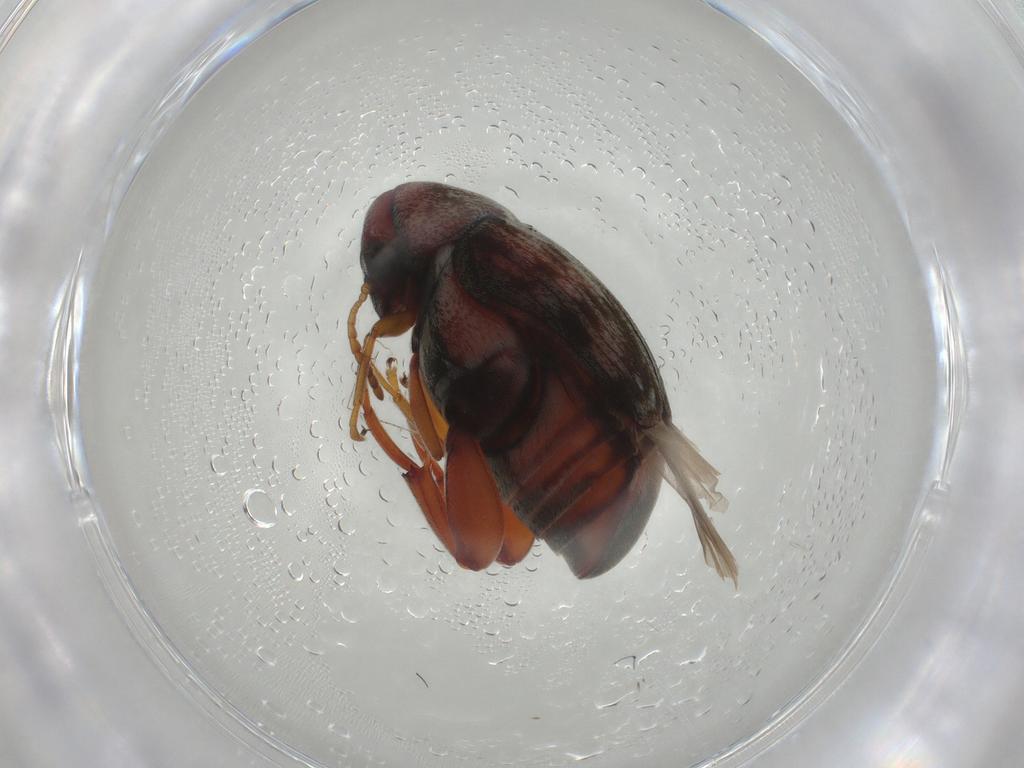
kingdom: Animalia
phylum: Arthropoda
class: Insecta
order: Coleoptera
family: Chrysomelidae
